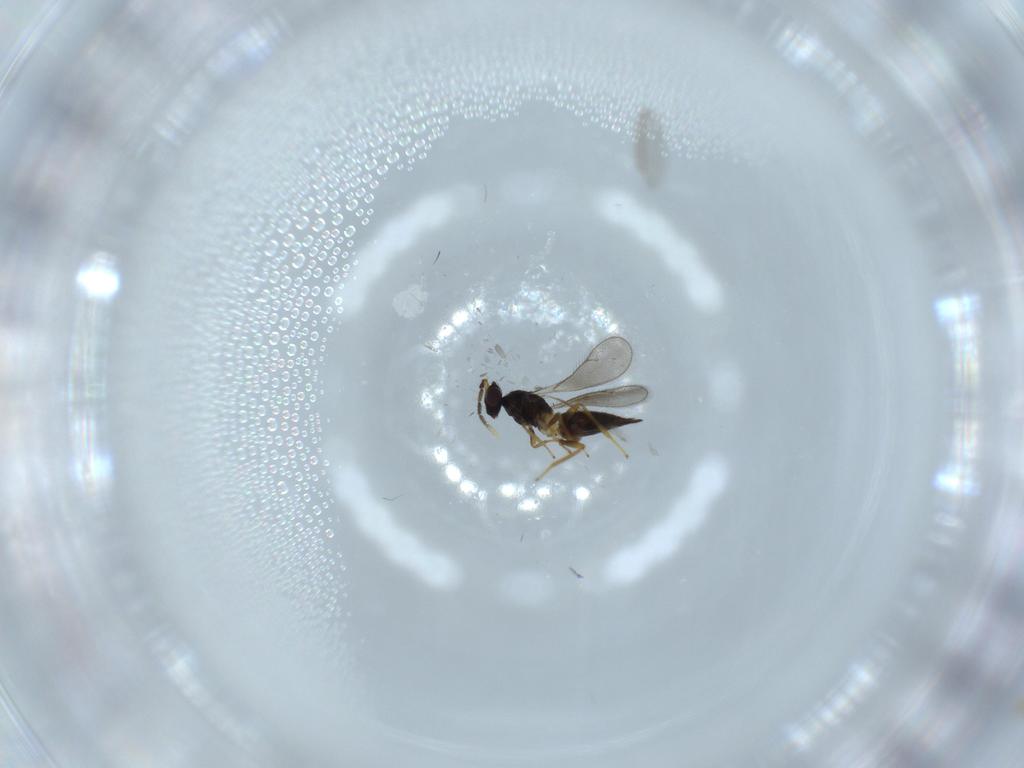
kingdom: Animalia
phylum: Arthropoda
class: Insecta
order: Hymenoptera
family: Eulophidae
